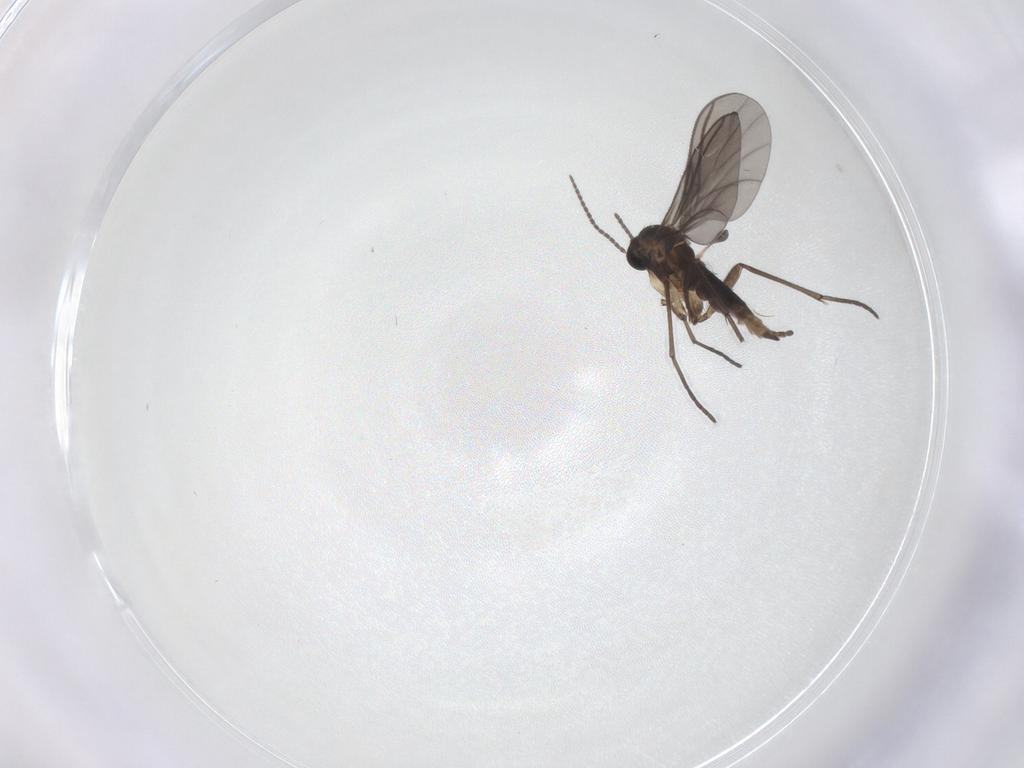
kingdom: Animalia
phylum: Arthropoda
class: Insecta
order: Diptera
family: Sciaridae
